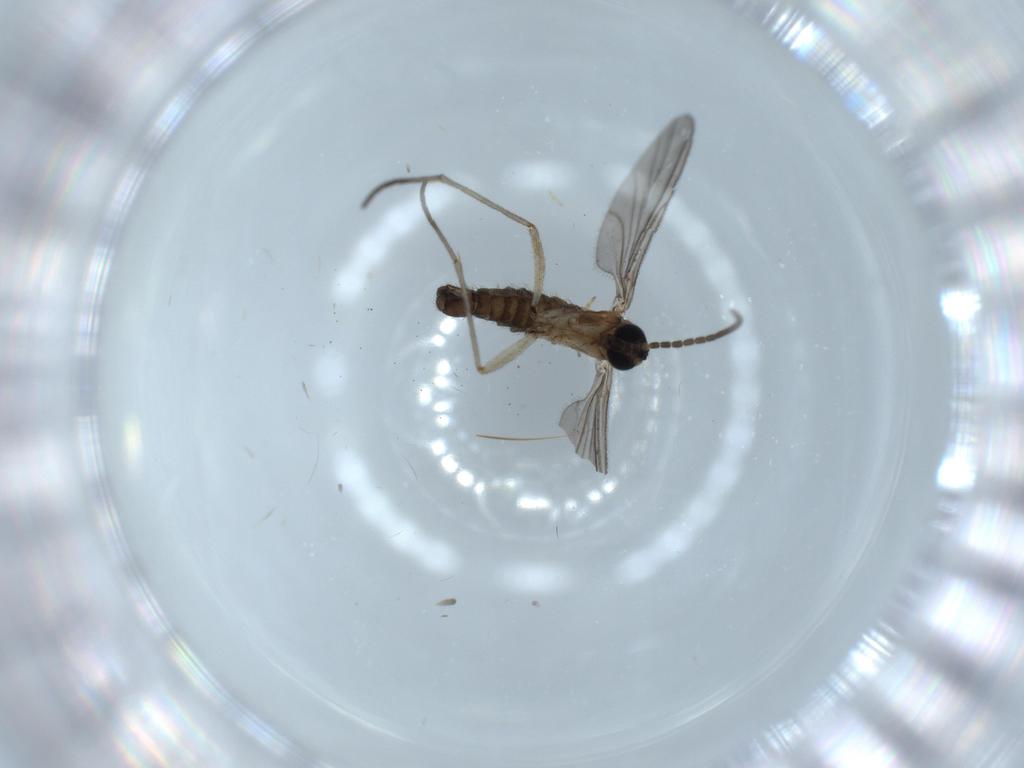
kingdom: Animalia
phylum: Arthropoda
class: Insecta
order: Diptera
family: Sciaridae
